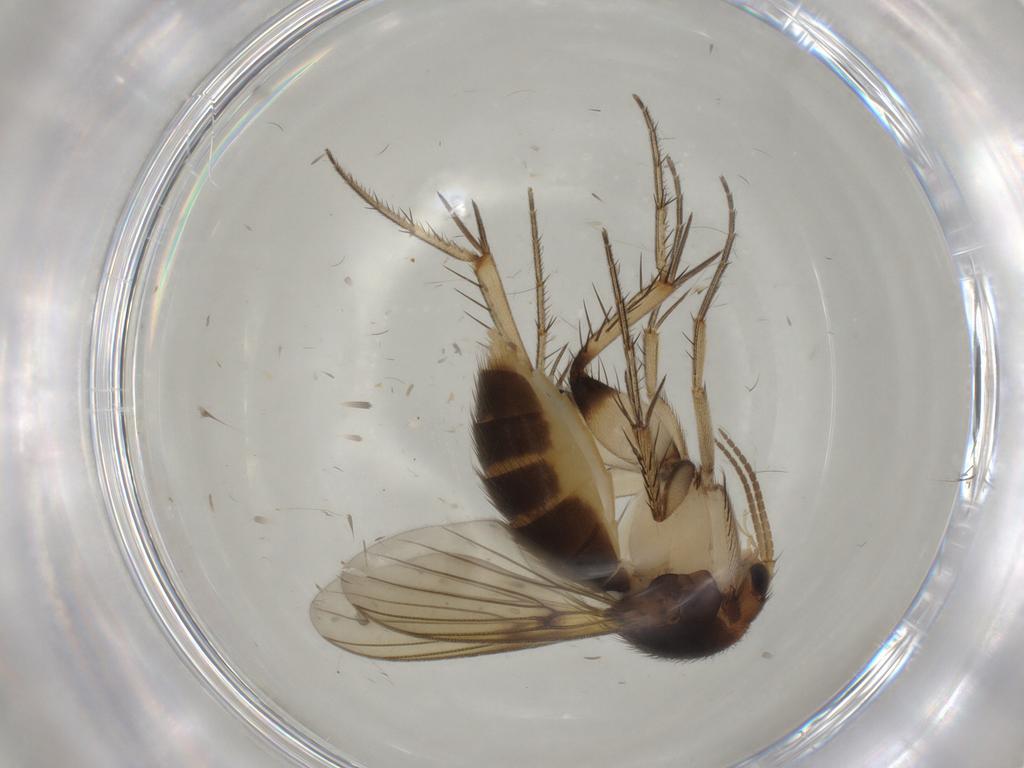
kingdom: Animalia
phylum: Arthropoda
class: Insecta
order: Diptera
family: Mycetophilidae
